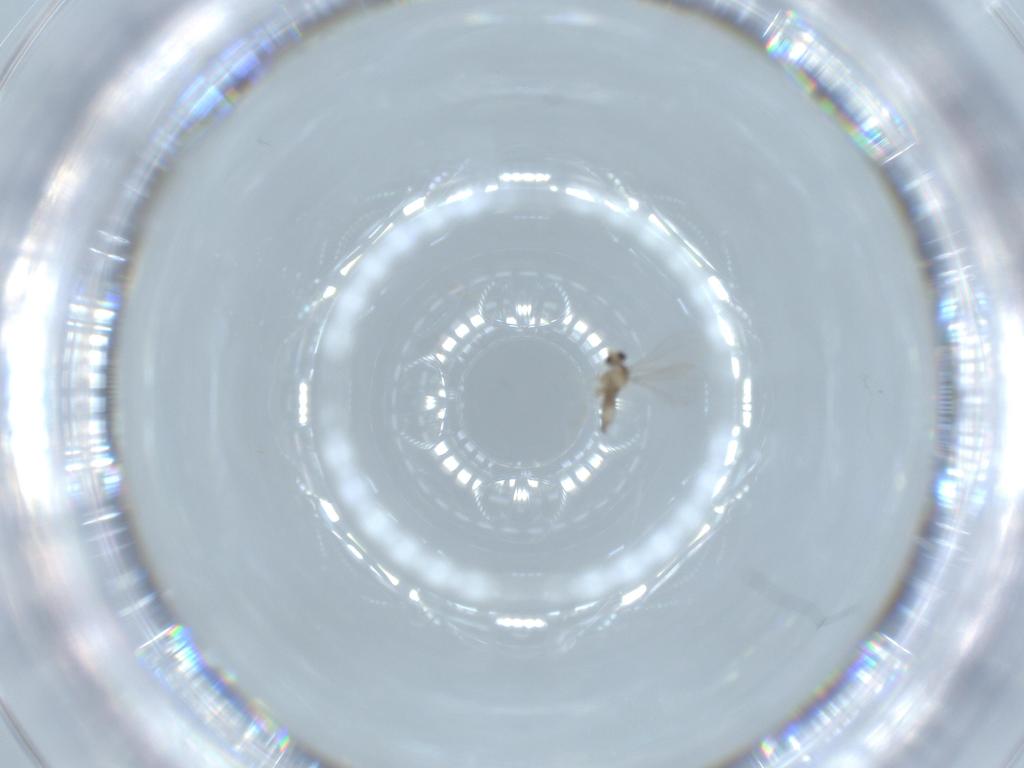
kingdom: Animalia
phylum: Arthropoda
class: Insecta
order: Diptera
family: Cecidomyiidae
